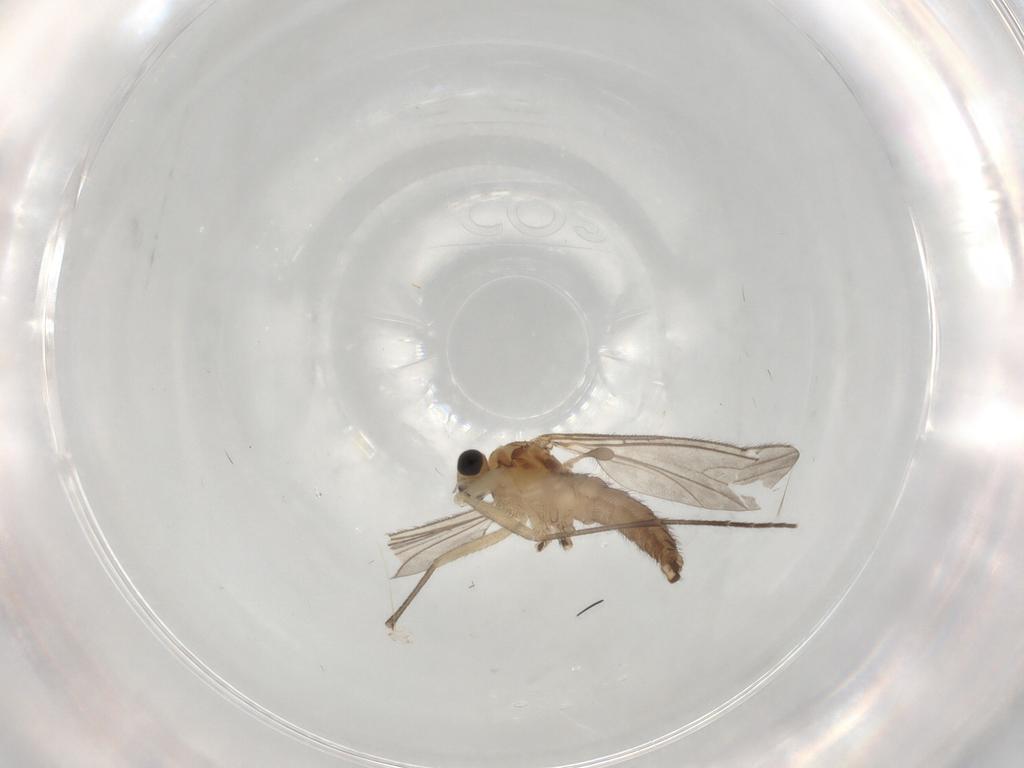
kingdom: Animalia
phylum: Arthropoda
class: Insecta
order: Diptera
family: Sciaridae
